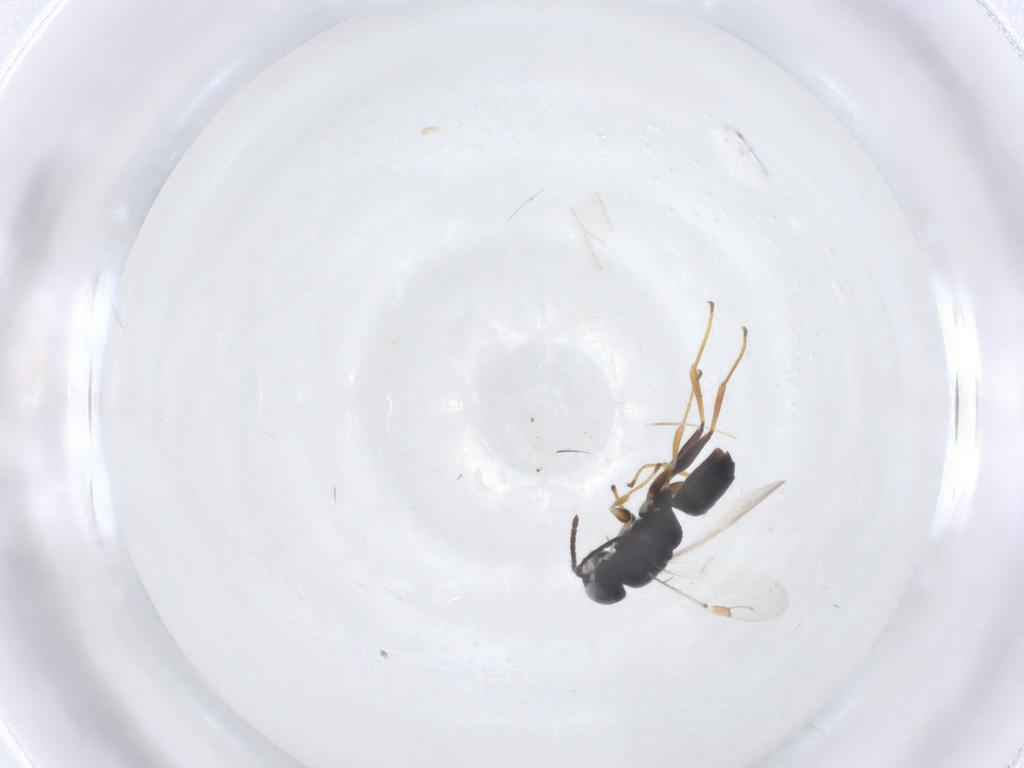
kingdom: Animalia
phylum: Arthropoda
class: Insecta
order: Hymenoptera
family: Dryinidae
